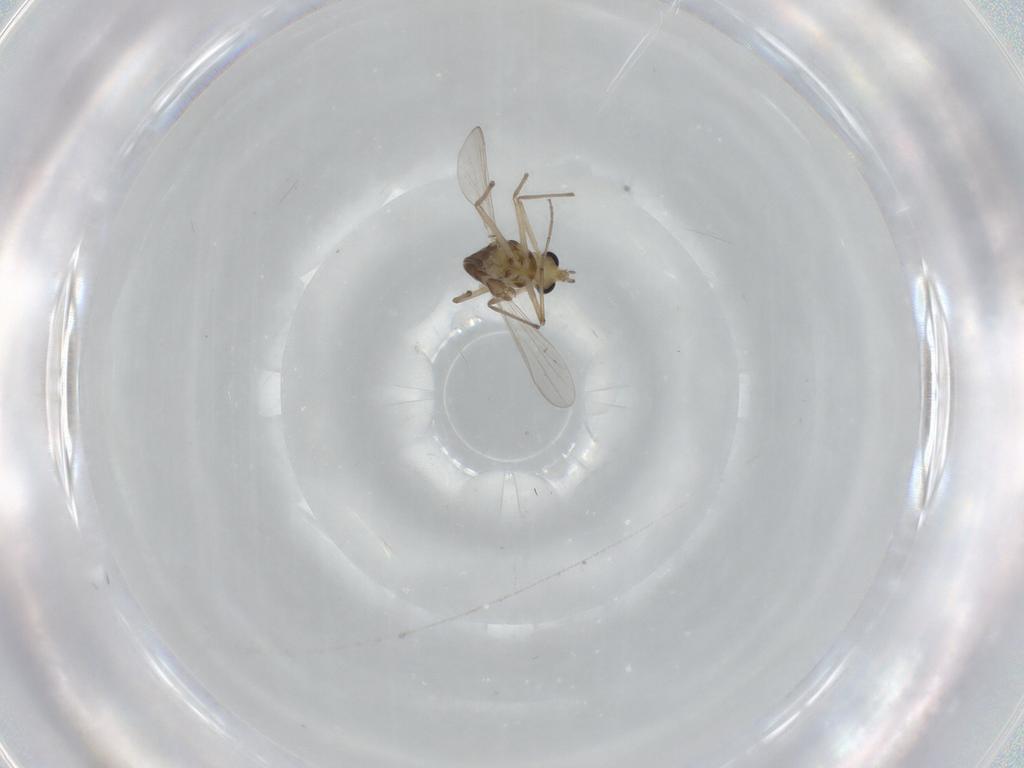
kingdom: Animalia
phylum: Arthropoda
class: Insecta
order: Diptera
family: Chironomidae
